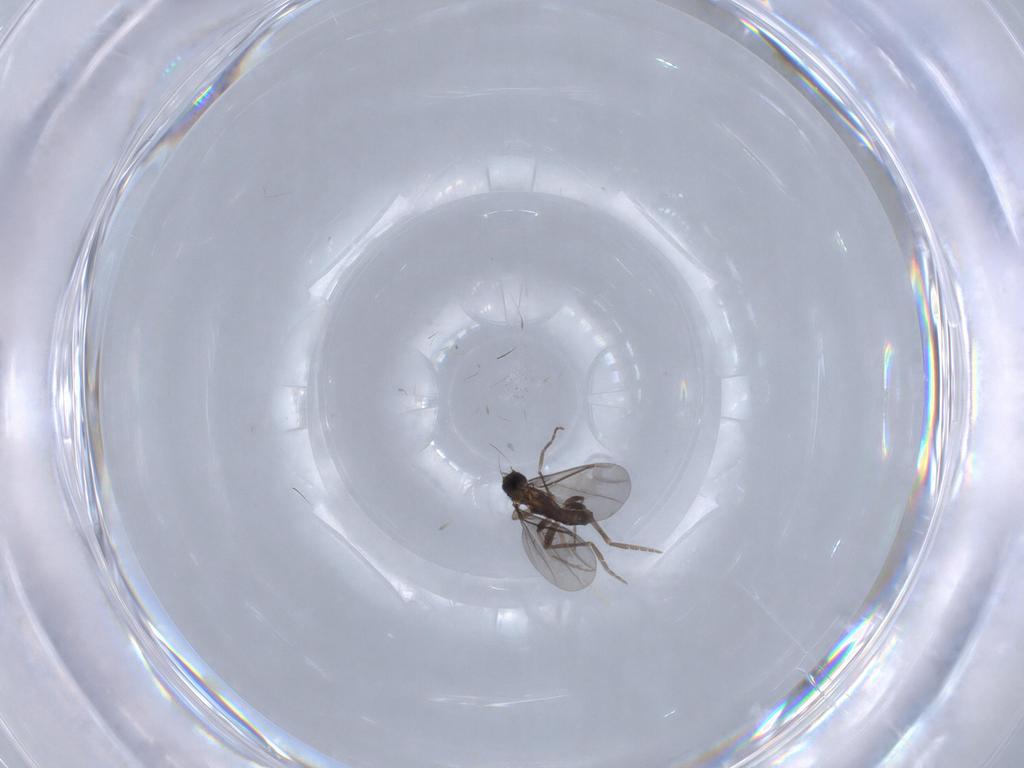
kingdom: Animalia
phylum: Arthropoda
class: Insecta
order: Diptera
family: Phoridae
